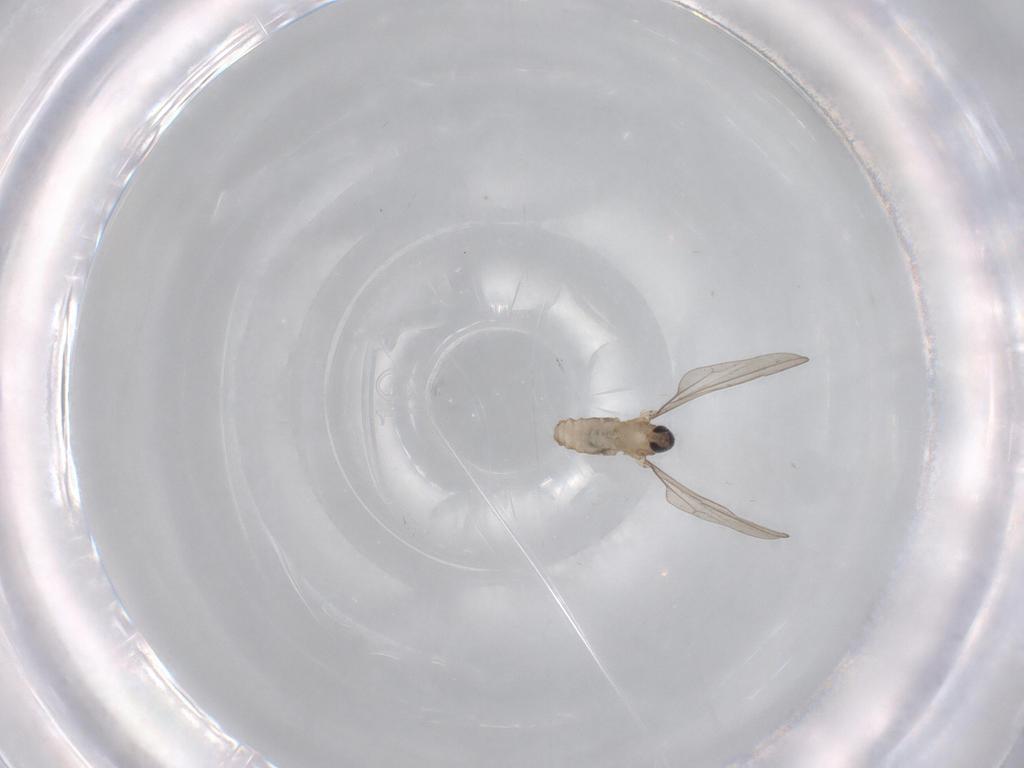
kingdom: Animalia
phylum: Arthropoda
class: Insecta
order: Diptera
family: Cecidomyiidae
